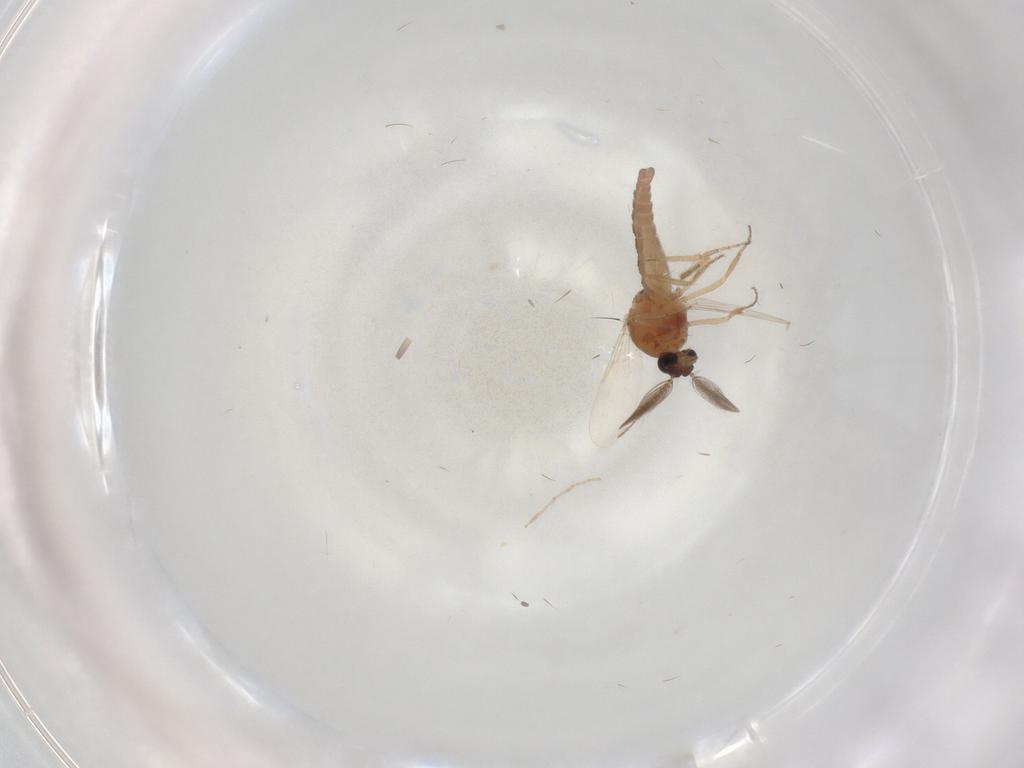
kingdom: Animalia
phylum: Arthropoda
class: Insecta
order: Diptera
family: Ceratopogonidae
